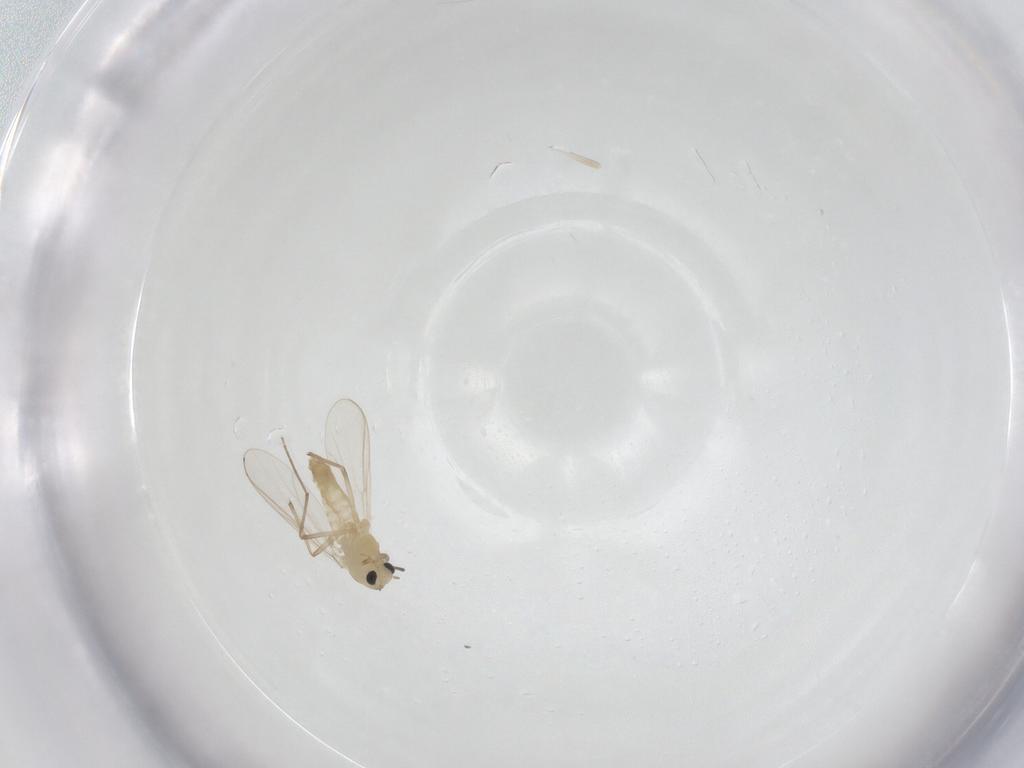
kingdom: Animalia
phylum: Arthropoda
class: Insecta
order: Diptera
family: Chironomidae
